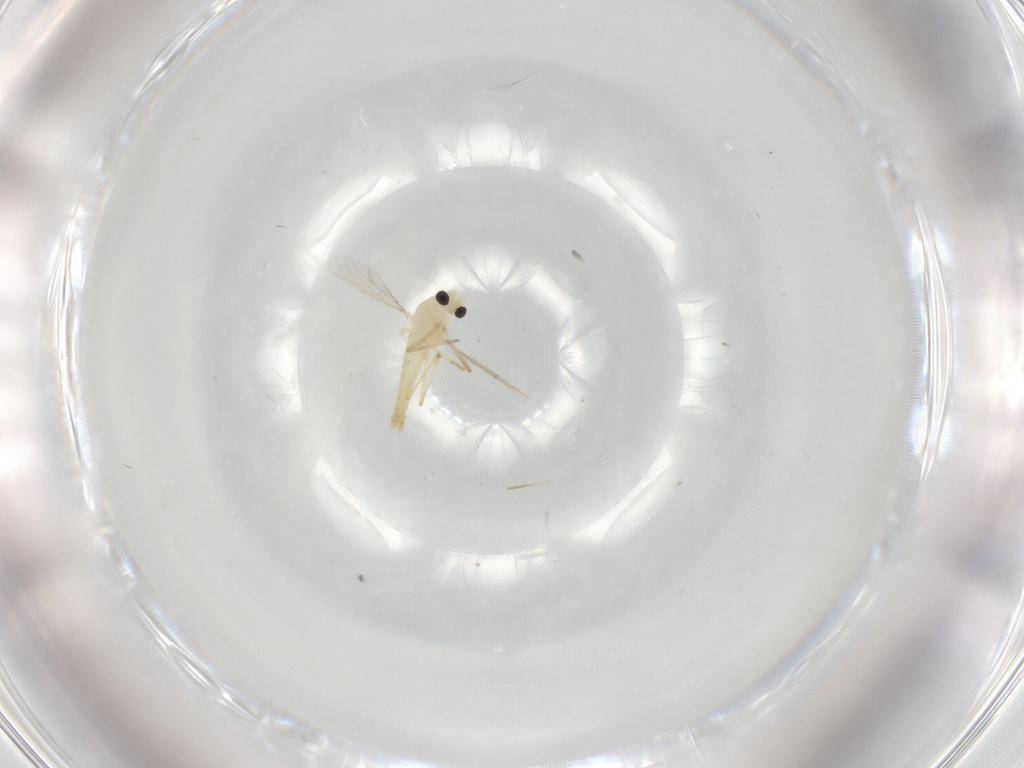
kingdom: Animalia
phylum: Arthropoda
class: Insecta
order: Diptera
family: Chironomidae
